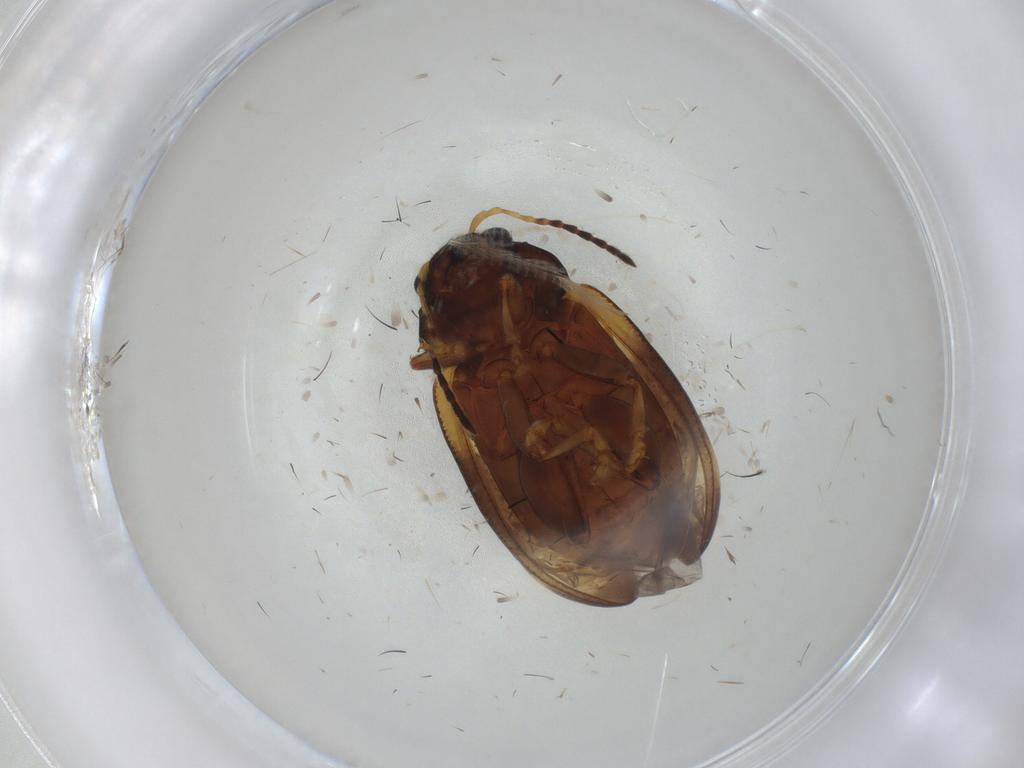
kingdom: Animalia
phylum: Arthropoda
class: Insecta
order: Coleoptera
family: Chrysomelidae
